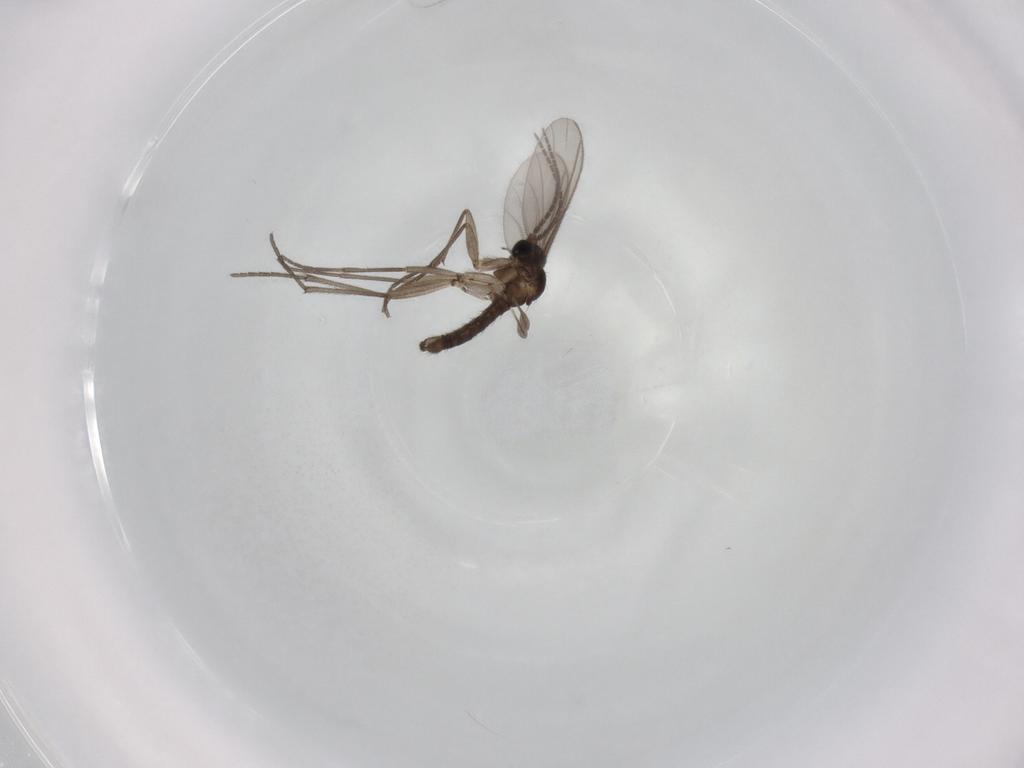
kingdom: Animalia
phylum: Arthropoda
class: Insecta
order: Diptera
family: Sciaridae
